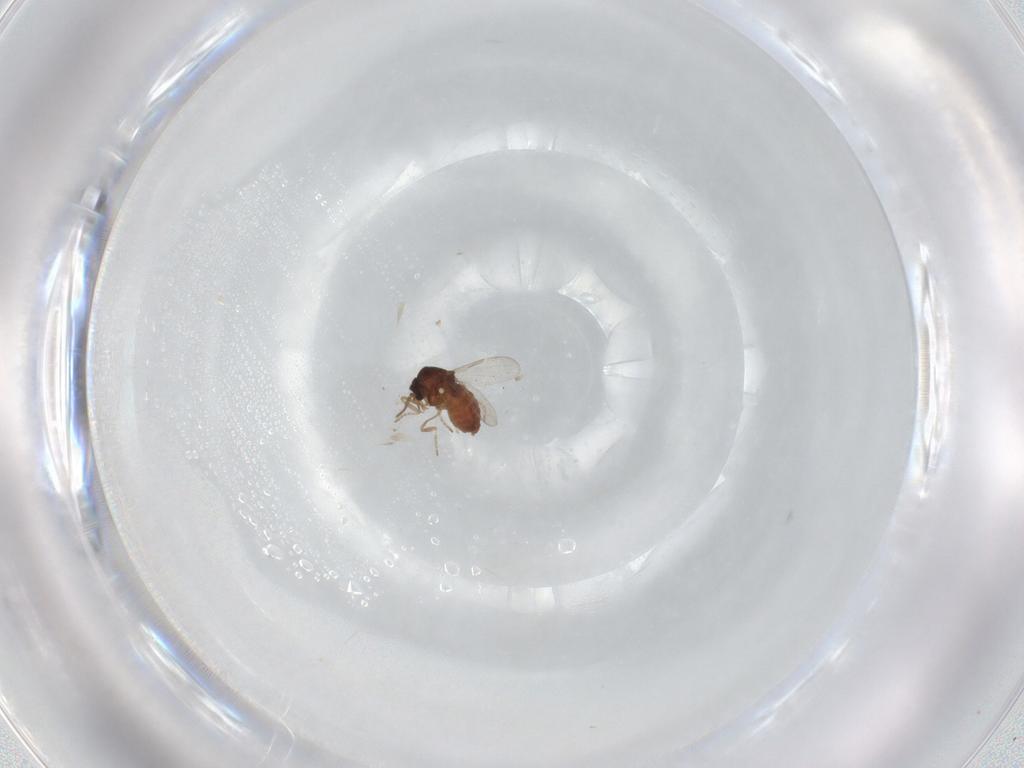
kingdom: Animalia
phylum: Arthropoda
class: Insecta
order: Diptera
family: Ceratopogonidae
